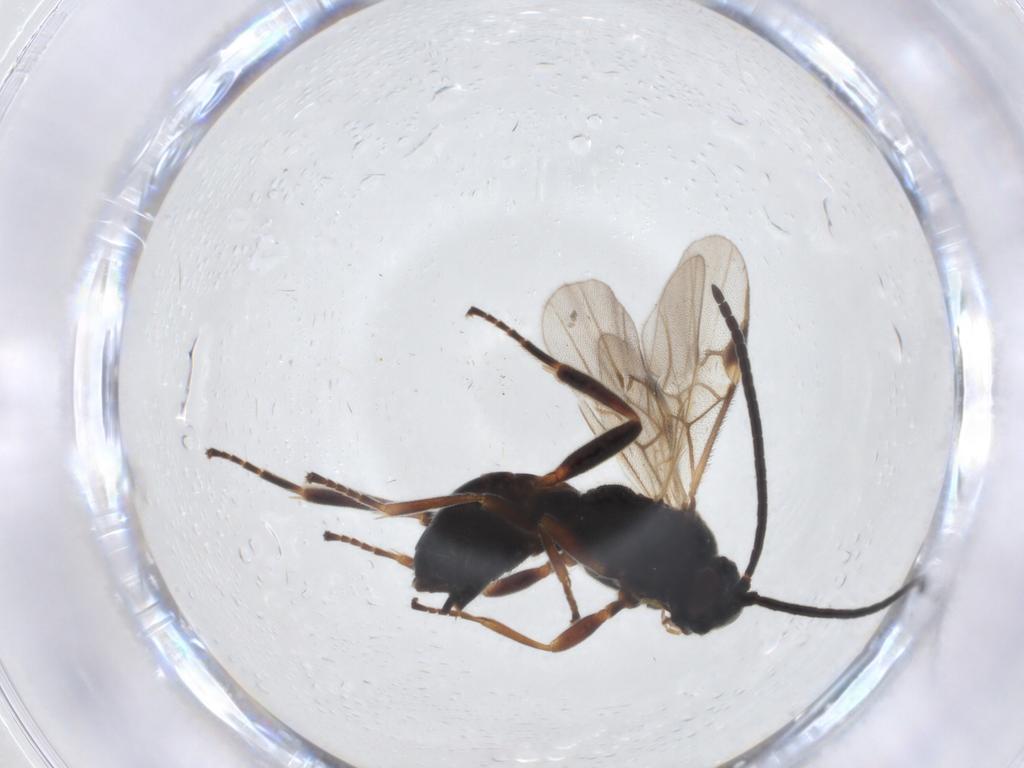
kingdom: Animalia
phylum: Arthropoda
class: Insecta
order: Hymenoptera
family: Braconidae
